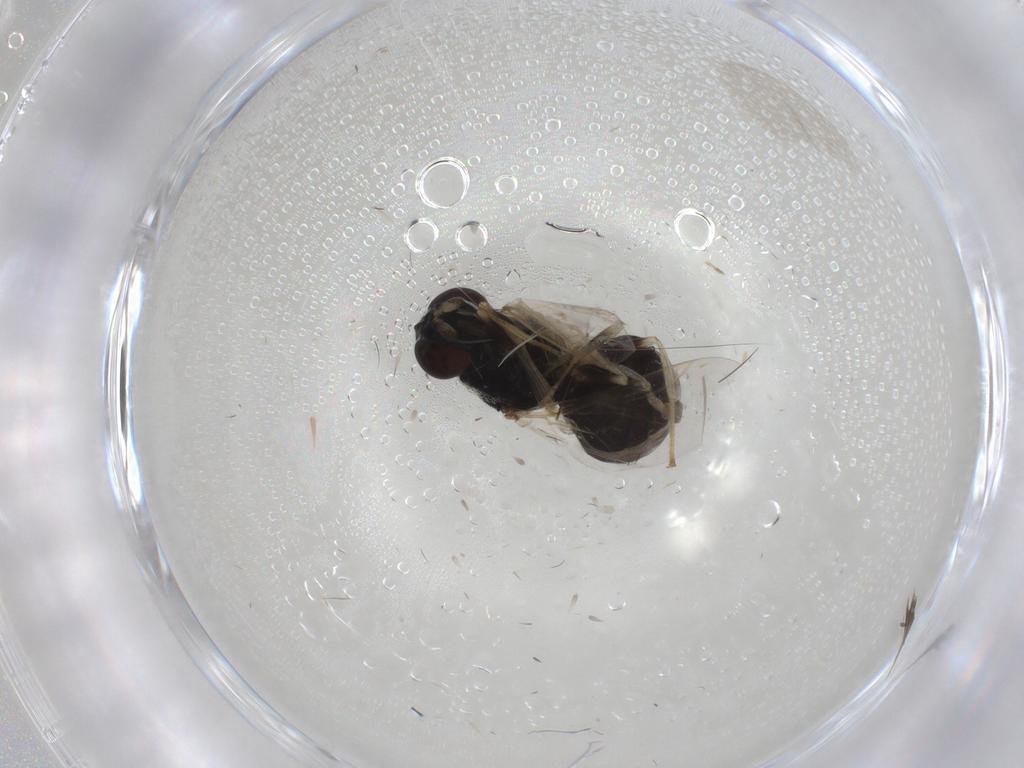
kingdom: Animalia
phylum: Arthropoda
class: Insecta
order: Diptera
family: Stratiomyidae
